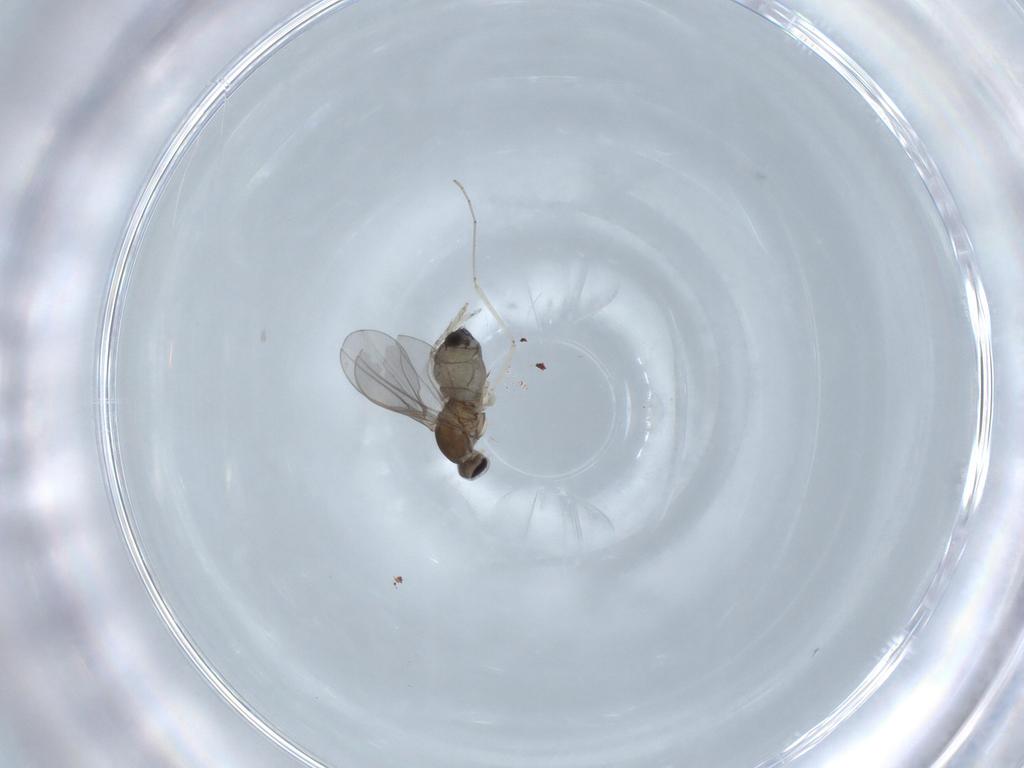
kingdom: Animalia
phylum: Arthropoda
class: Insecta
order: Diptera
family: Cecidomyiidae
